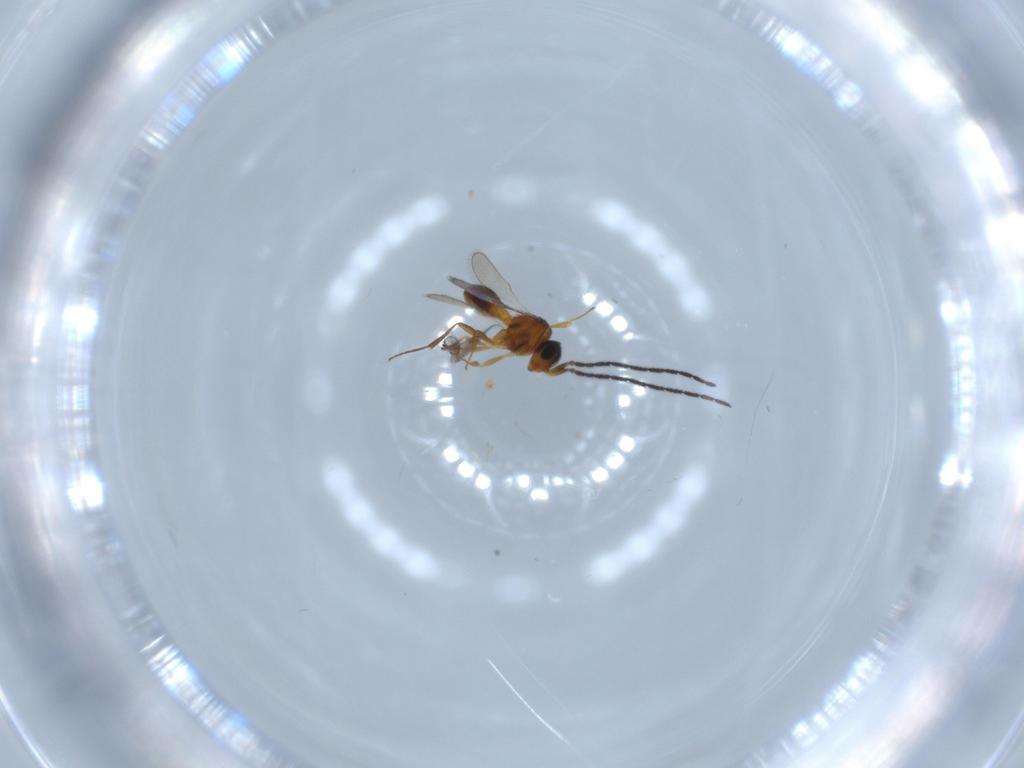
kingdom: Animalia
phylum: Arthropoda
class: Insecta
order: Hymenoptera
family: Scelionidae
